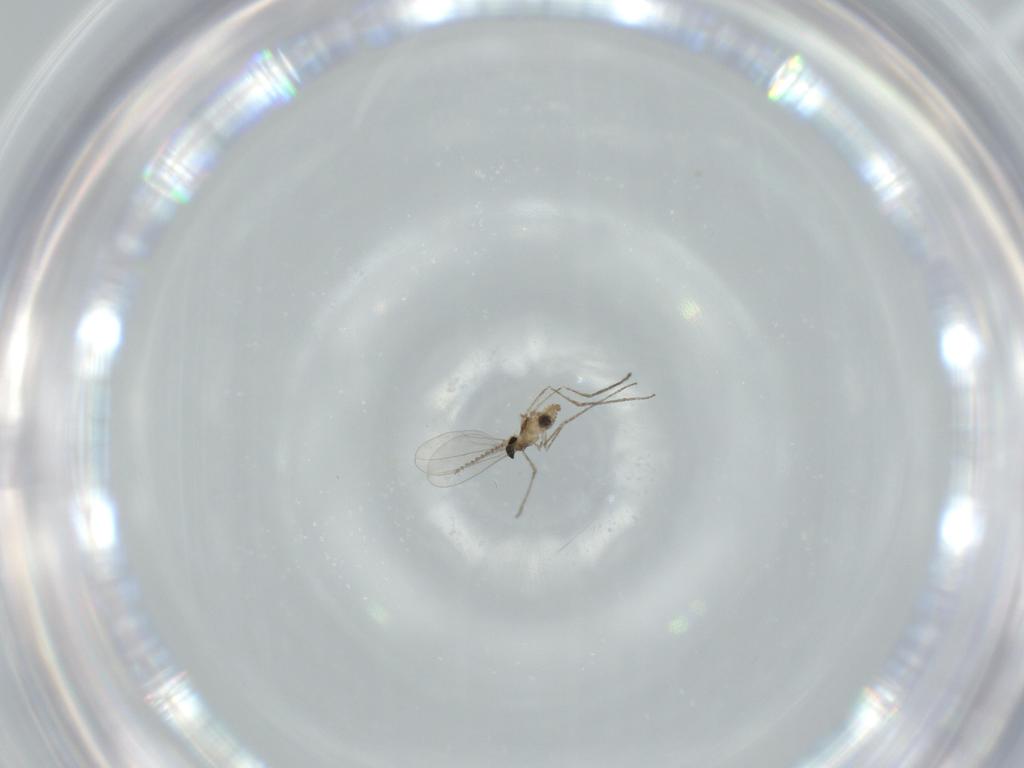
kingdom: Animalia
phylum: Arthropoda
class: Insecta
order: Diptera
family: Cecidomyiidae
